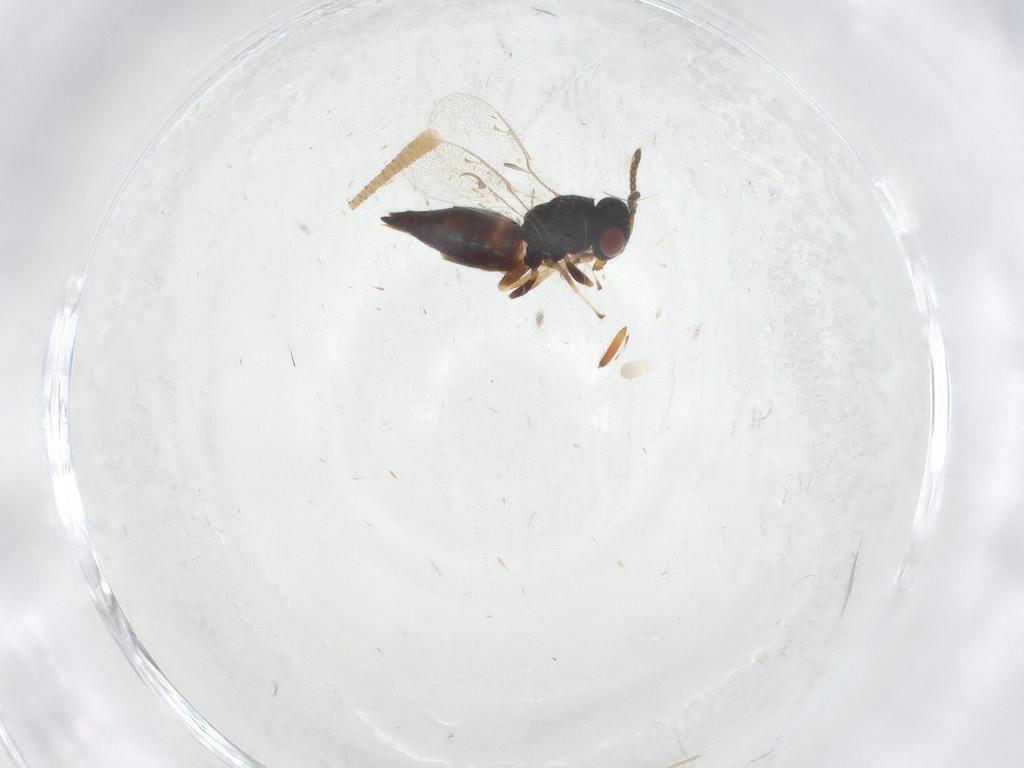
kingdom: Animalia
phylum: Arthropoda
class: Insecta
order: Hymenoptera
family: Pteromalidae
